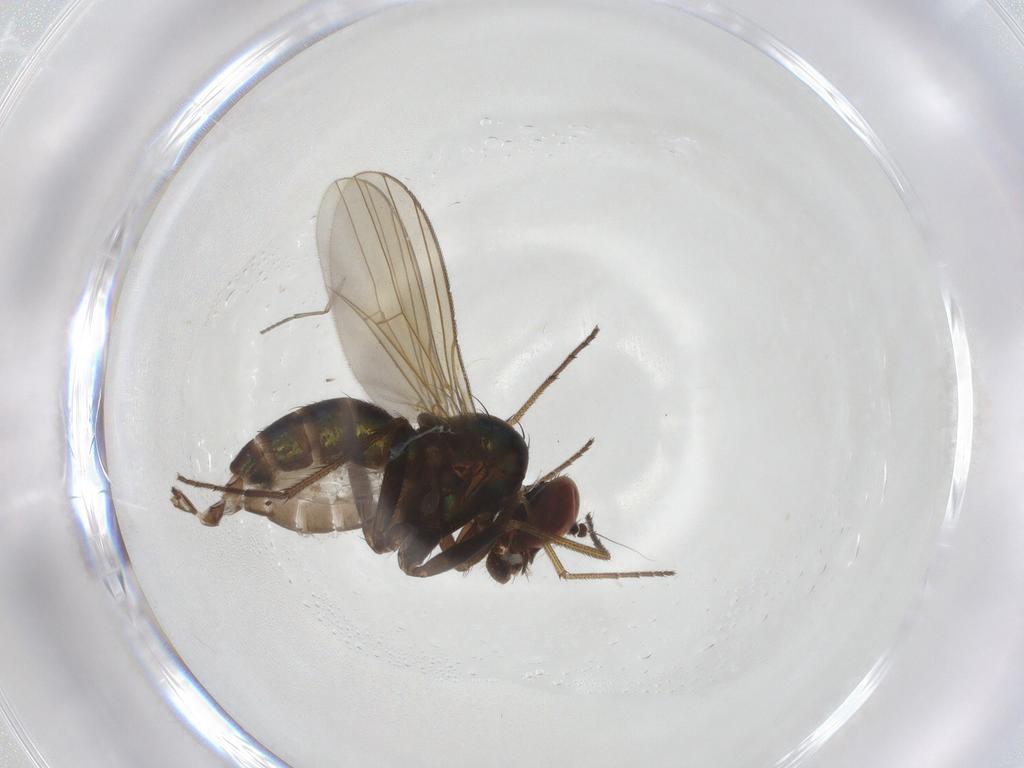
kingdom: Animalia
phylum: Arthropoda
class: Insecta
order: Diptera
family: Dolichopodidae
